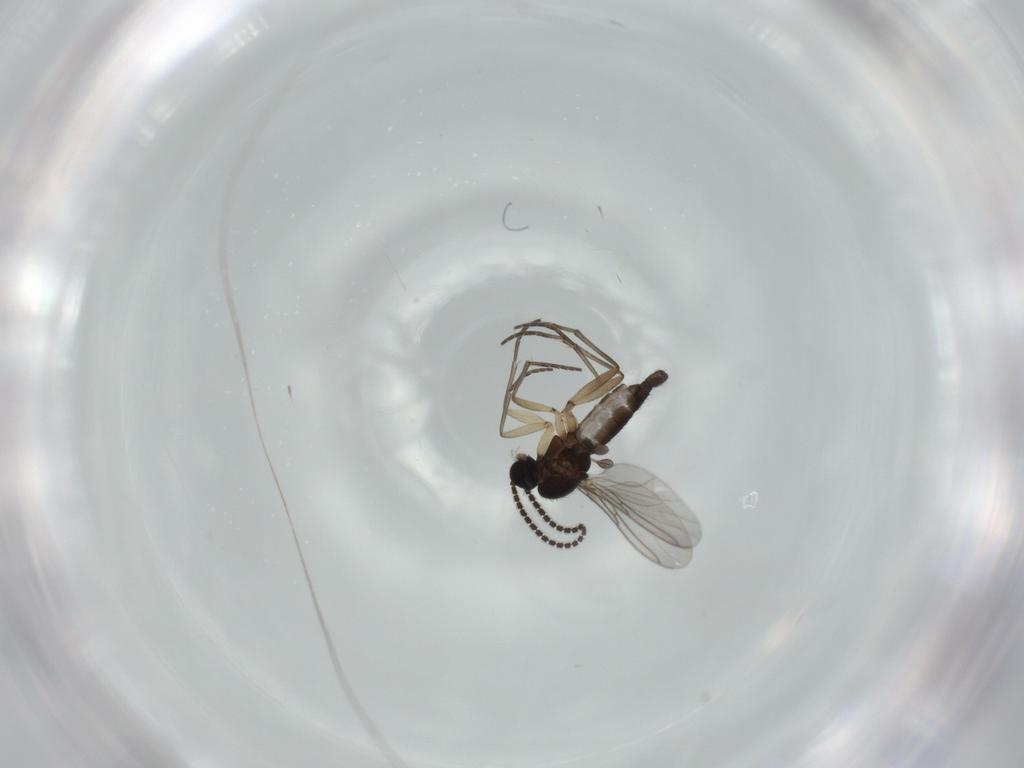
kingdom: Animalia
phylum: Arthropoda
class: Insecta
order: Diptera
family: Sciaridae
